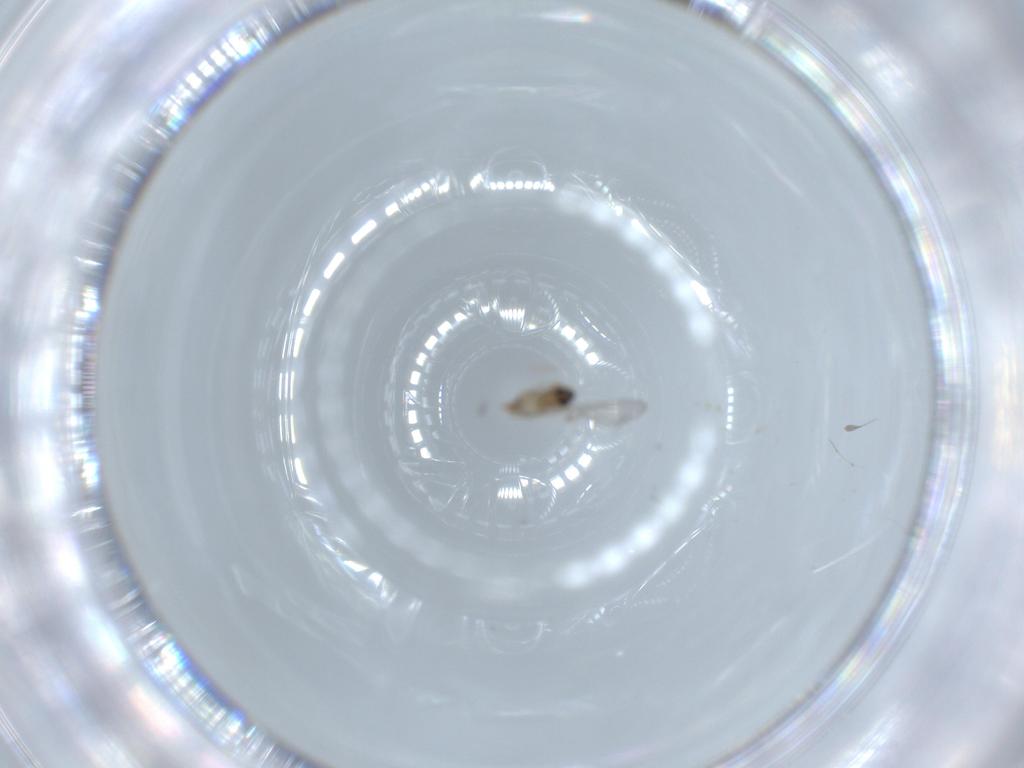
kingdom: Animalia
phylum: Arthropoda
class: Insecta
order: Diptera
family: Cecidomyiidae
